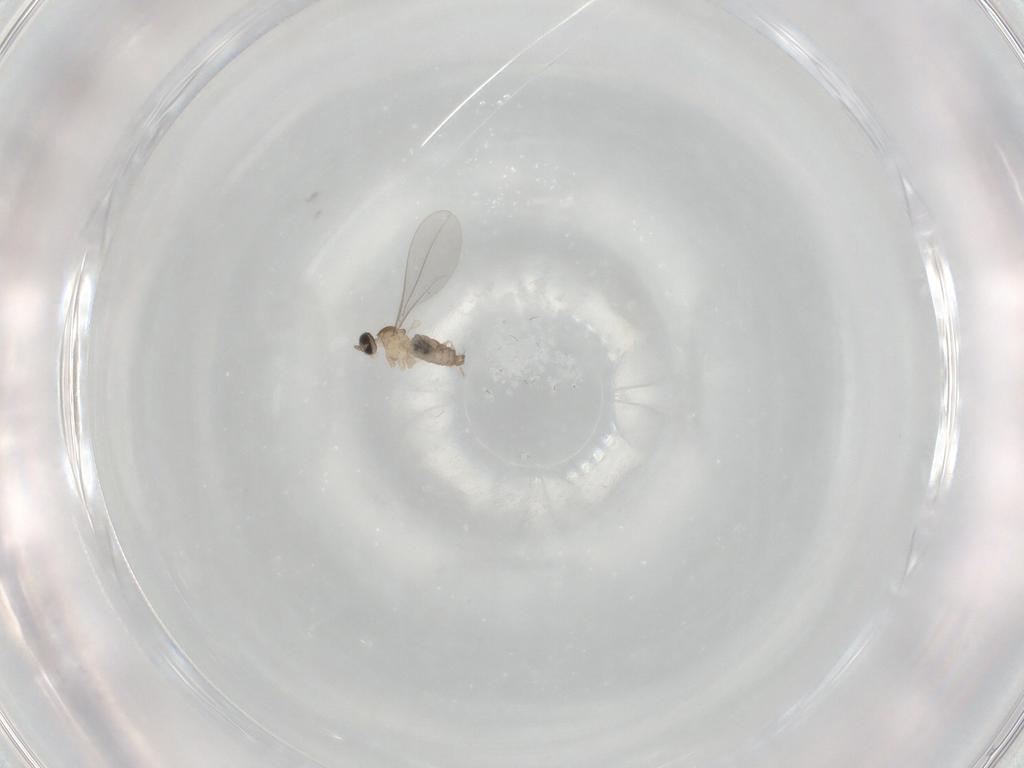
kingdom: Animalia
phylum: Arthropoda
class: Insecta
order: Diptera
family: Cecidomyiidae
